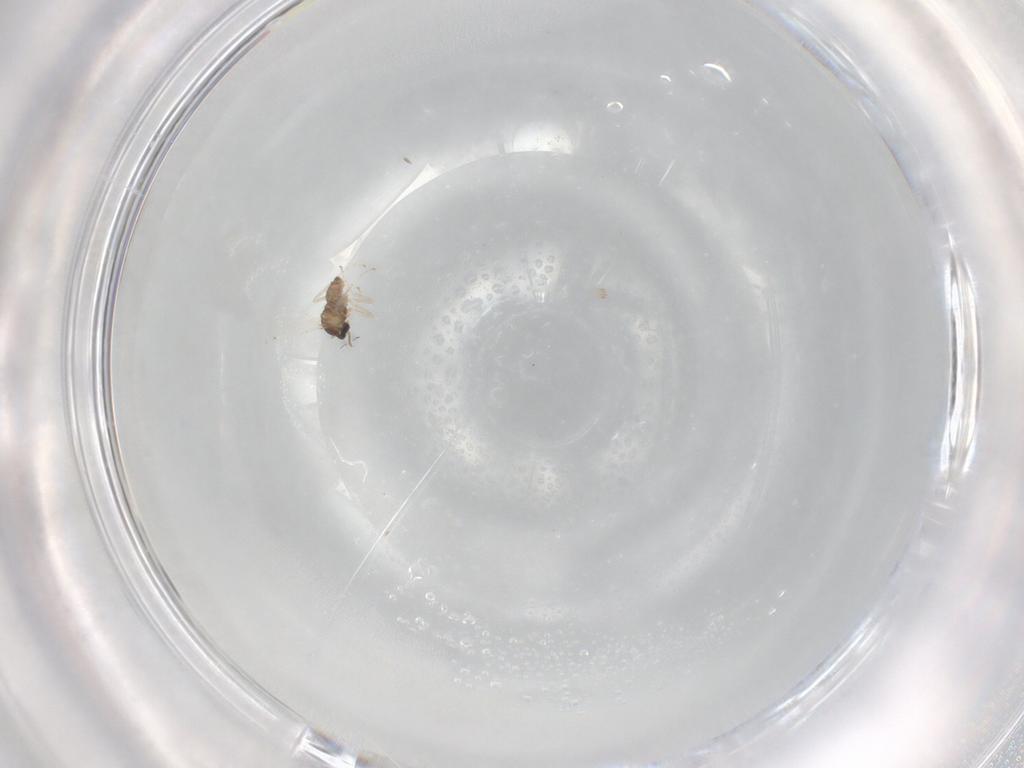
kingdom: Animalia
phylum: Arthropoda
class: Insecta
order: Diptera
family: Cecidomyiidae
